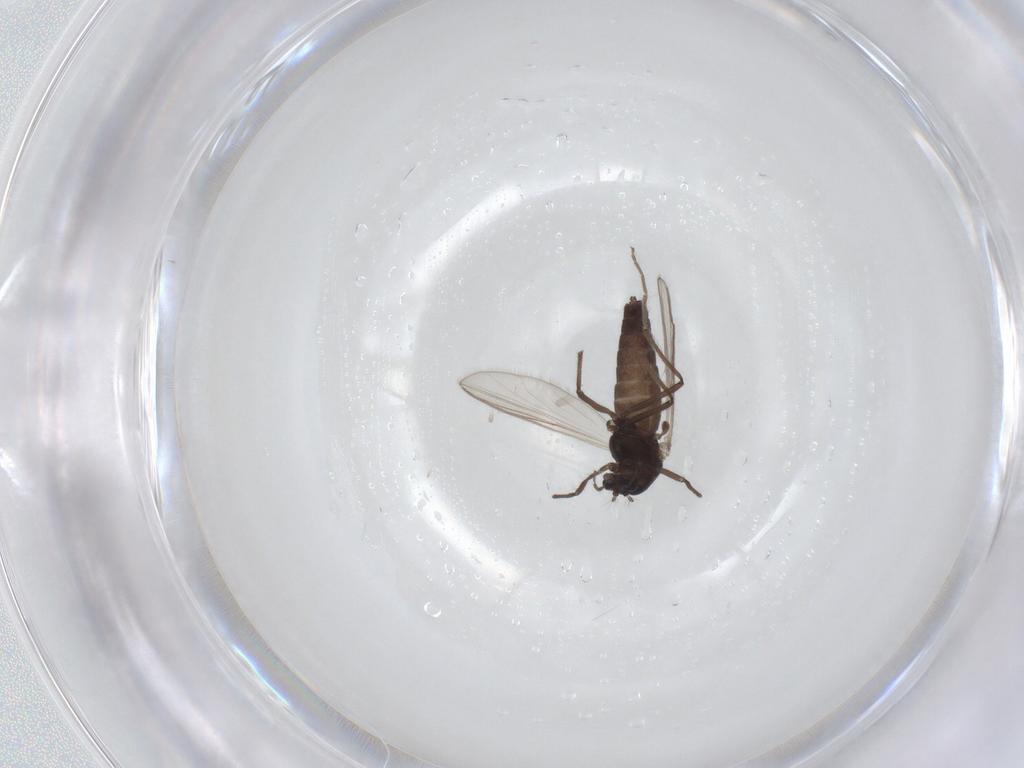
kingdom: Animalia
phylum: Arthropoda
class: Insecta
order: Diptera
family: Chironomidae
